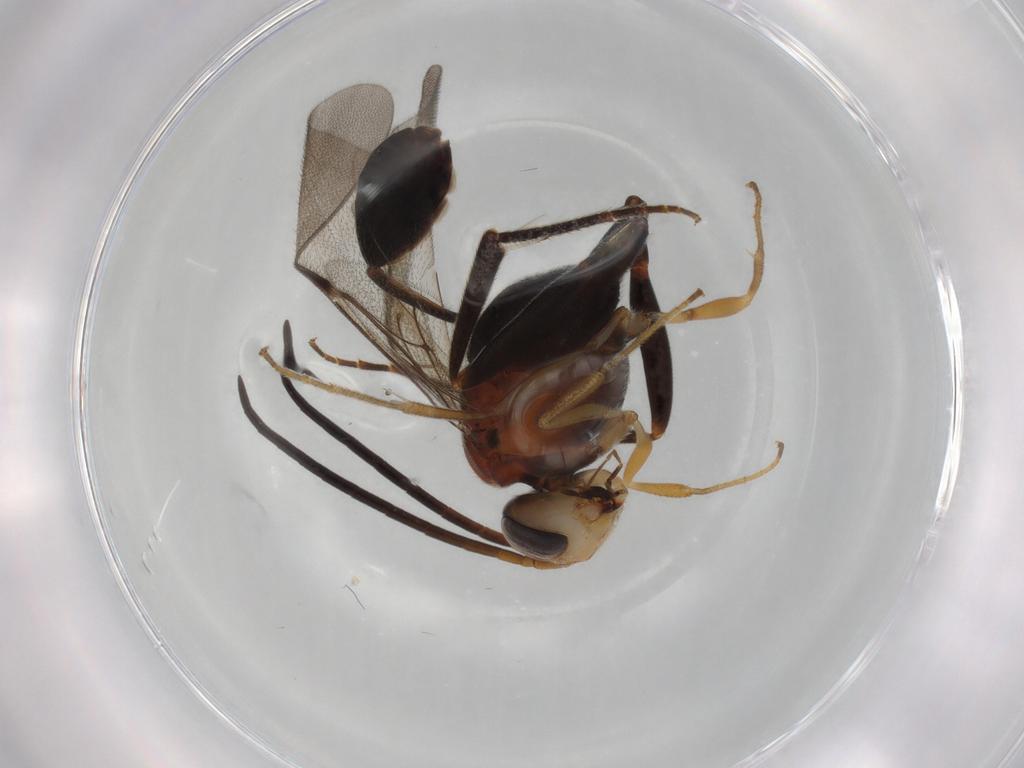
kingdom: Animalia
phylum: Arthropoda
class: Insecta
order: Hymenoptera
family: Evaniidae
